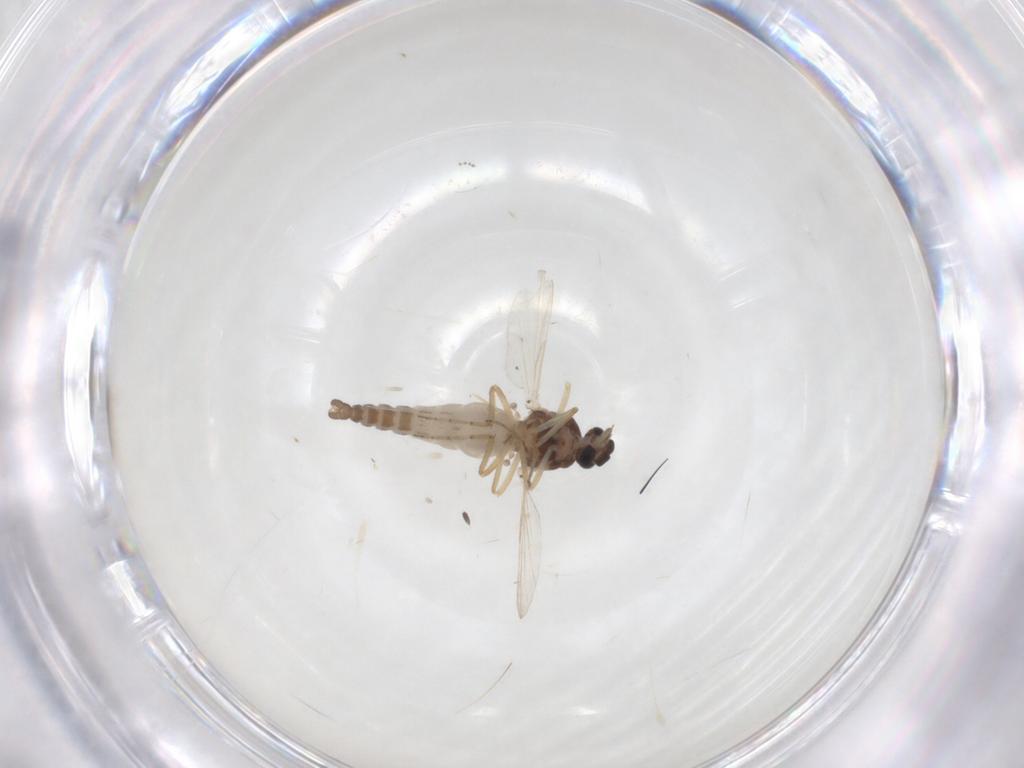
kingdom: Animalia
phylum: Arthropoda
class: Insecta
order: Diptera
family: Ceratopogonidae
